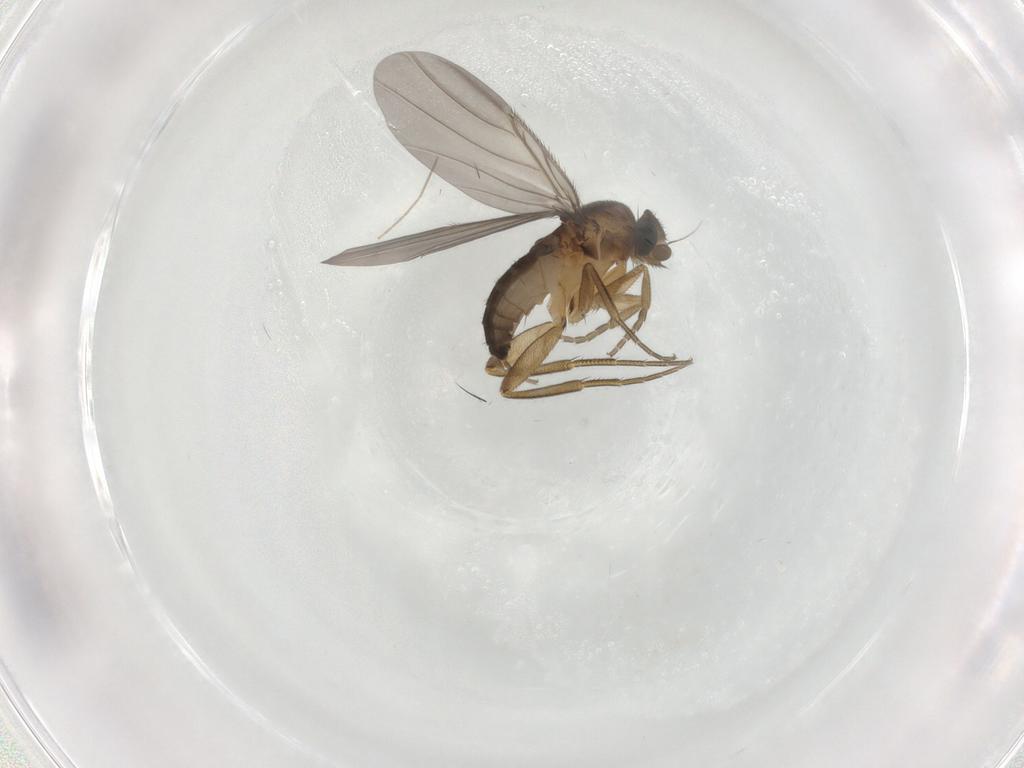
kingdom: Animalia
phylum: Arthropoda
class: Insecta
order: Diptera
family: Phoridae
